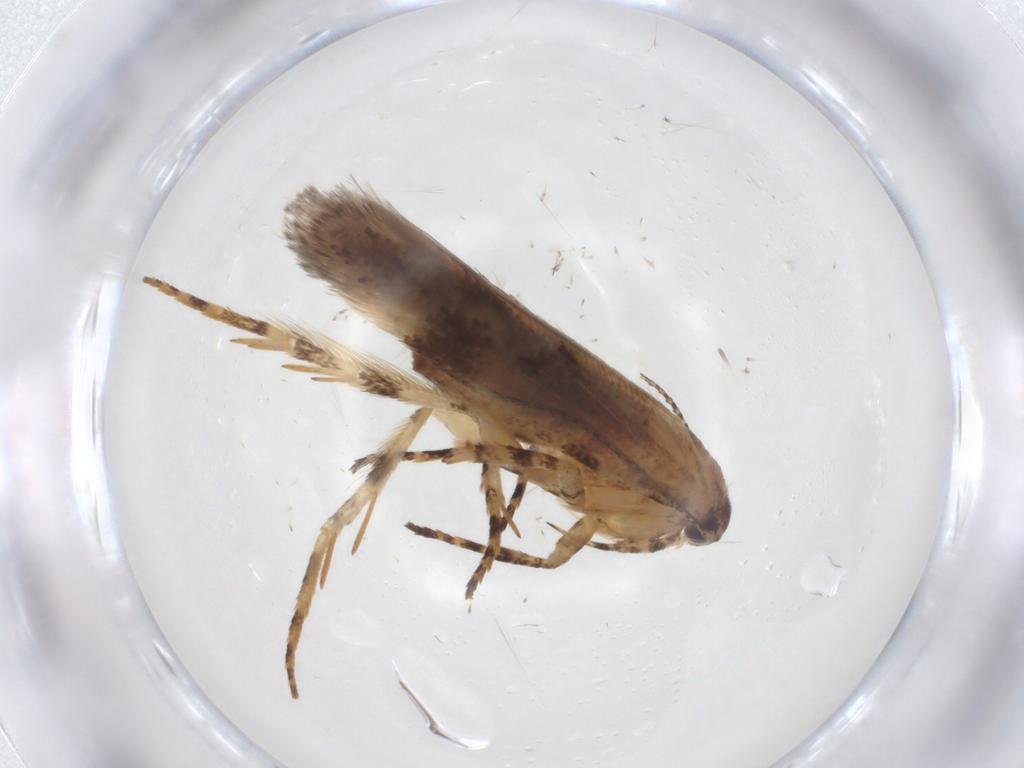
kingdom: Animalia
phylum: Arthropoda
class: Insecta
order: Lepidoptera
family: Gelechiidae
